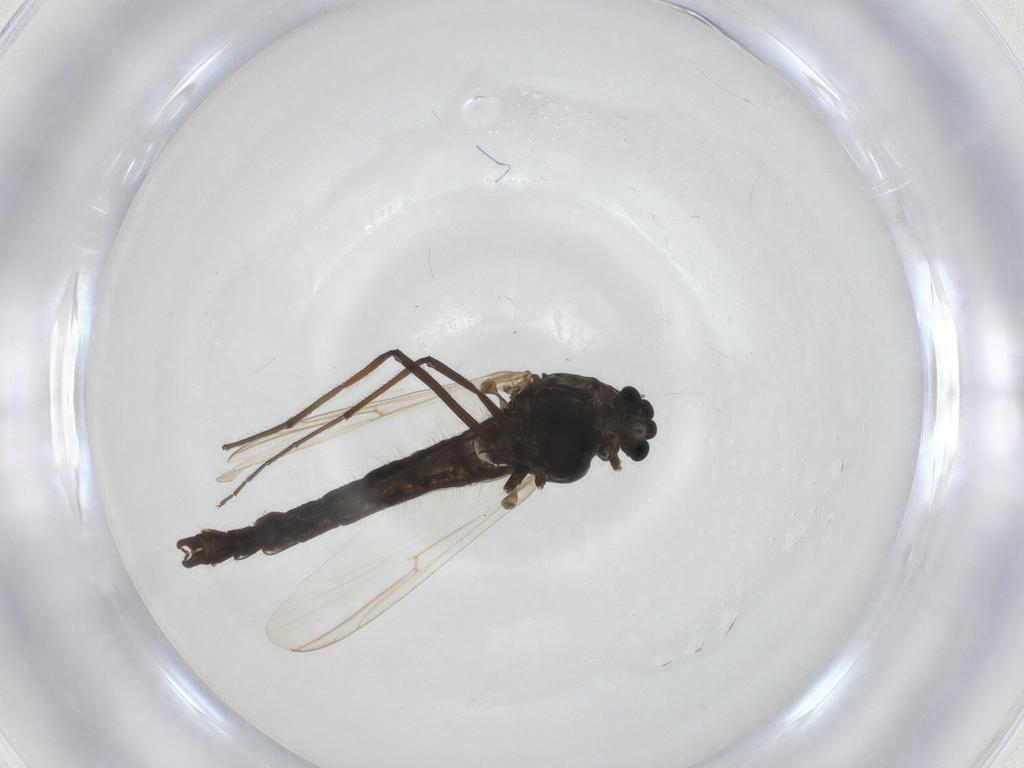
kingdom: Animalia
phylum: Arthropoda
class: Insecta
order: Diptera
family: Chironomidae
